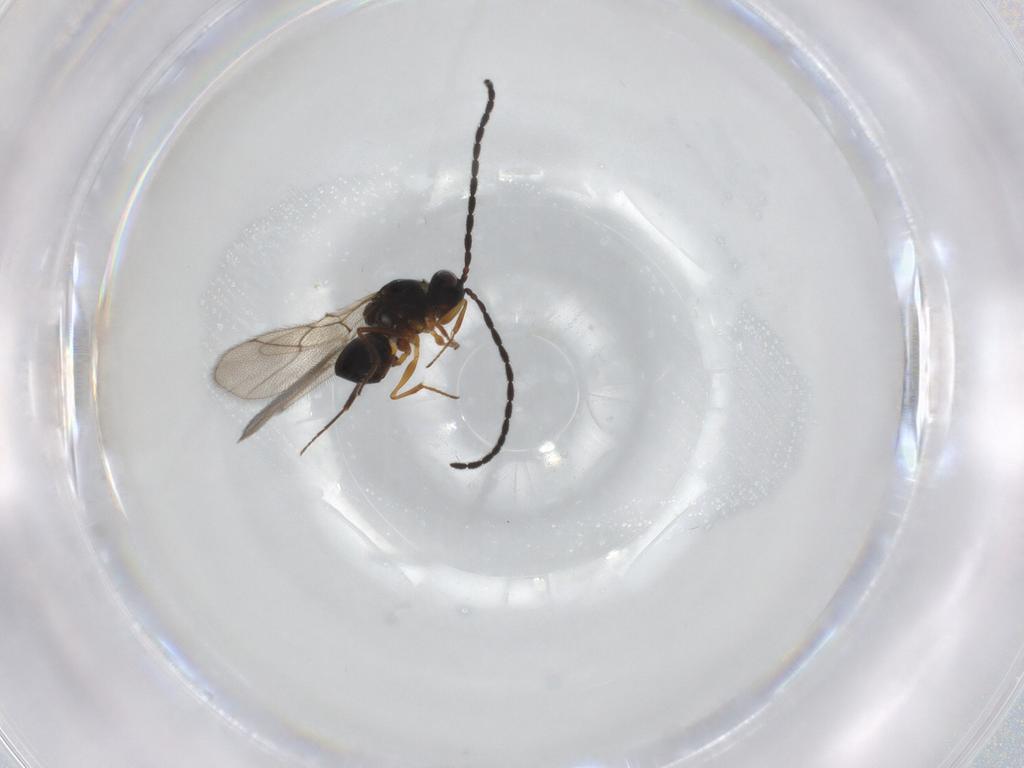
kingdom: Animalia
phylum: Arthropoda
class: Insecta
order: Hymenoptera
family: Figitidae
